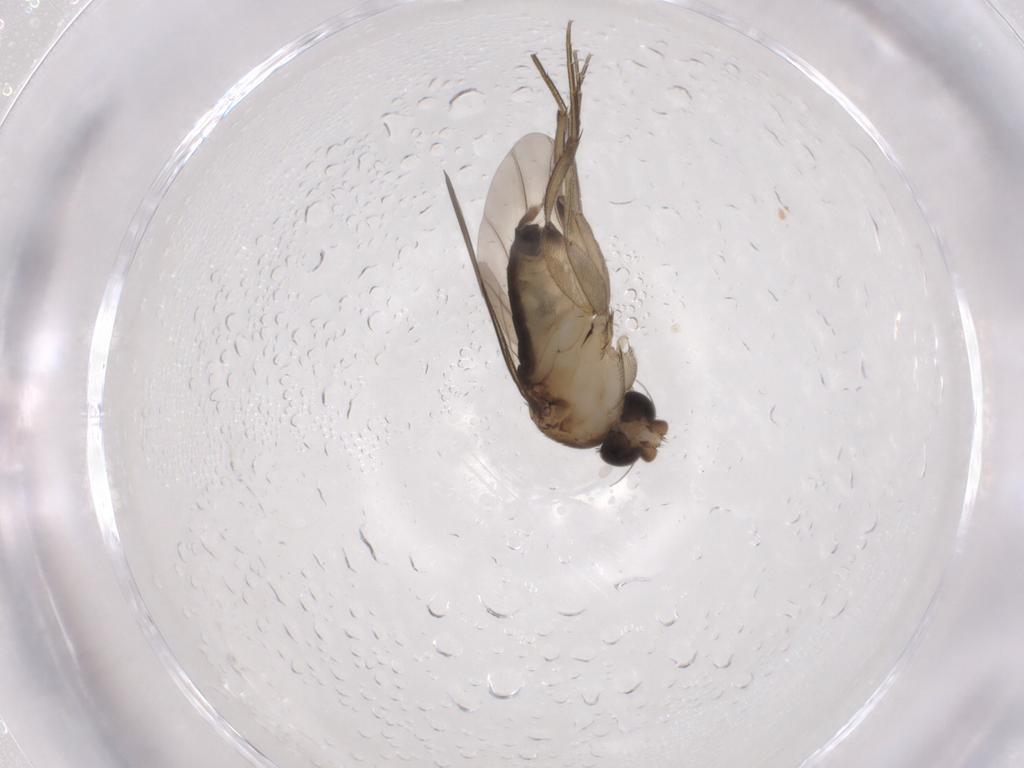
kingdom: Animalia
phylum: Arthropoda
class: Insecta
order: Diptera
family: Phoridae
